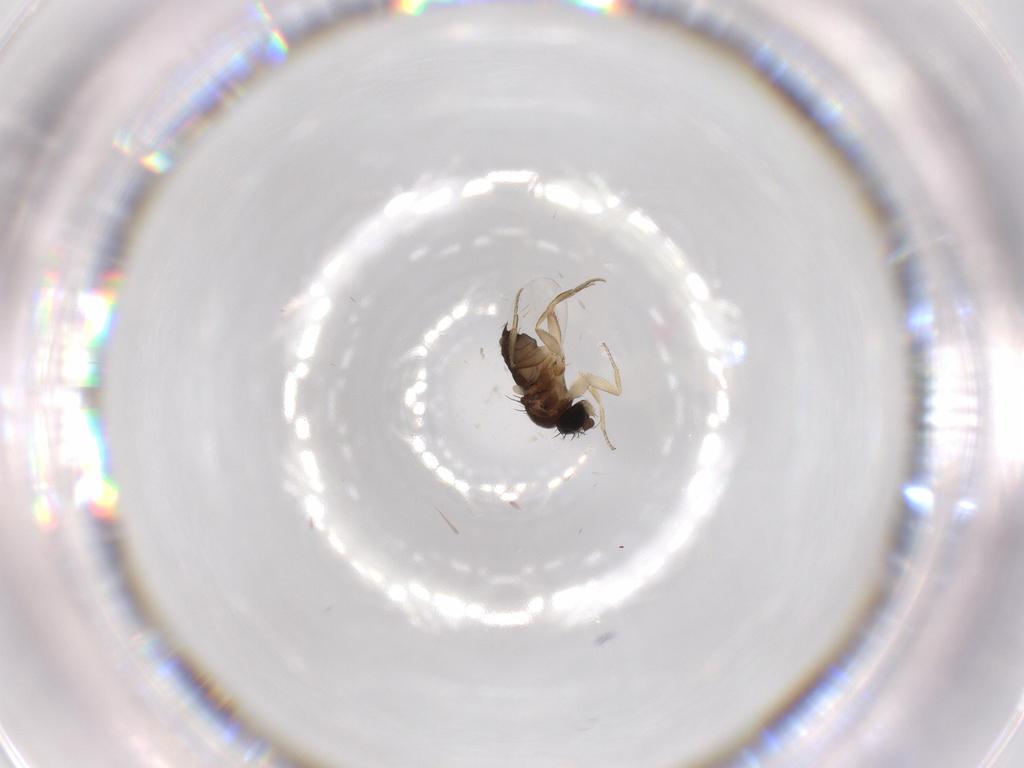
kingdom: Animalia
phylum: Arthropoda
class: Insecta
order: Diptera
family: Phoridae
